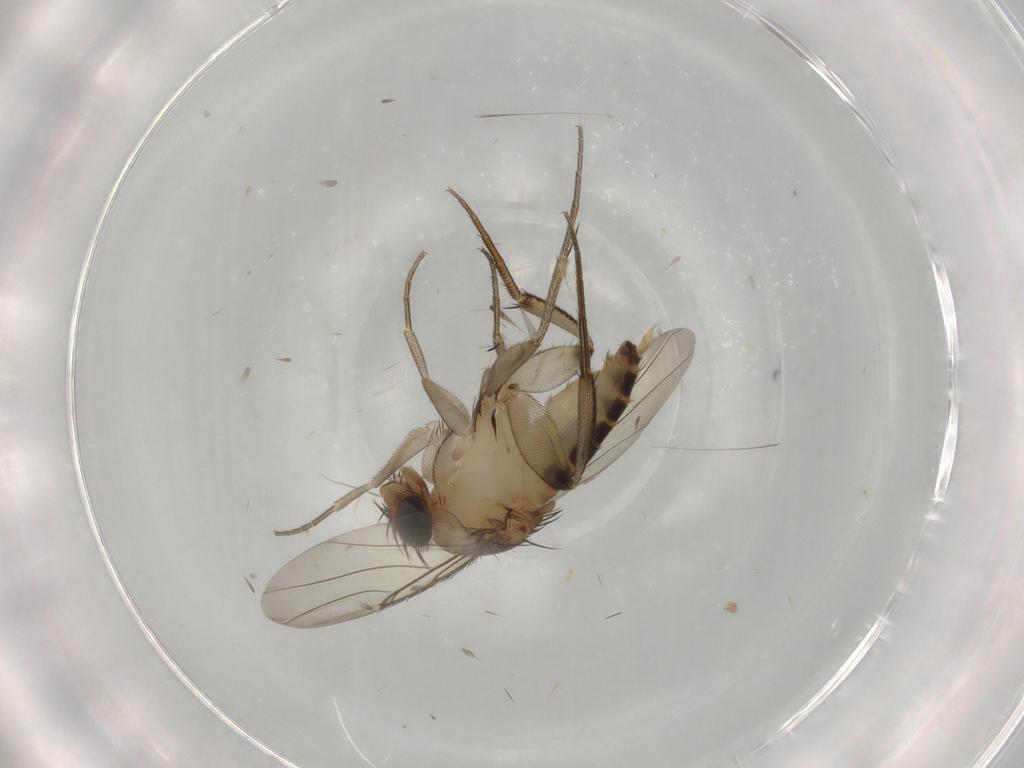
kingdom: Animalia
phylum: Arthropoda
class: Insecta
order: Diptera
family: Phoridae
